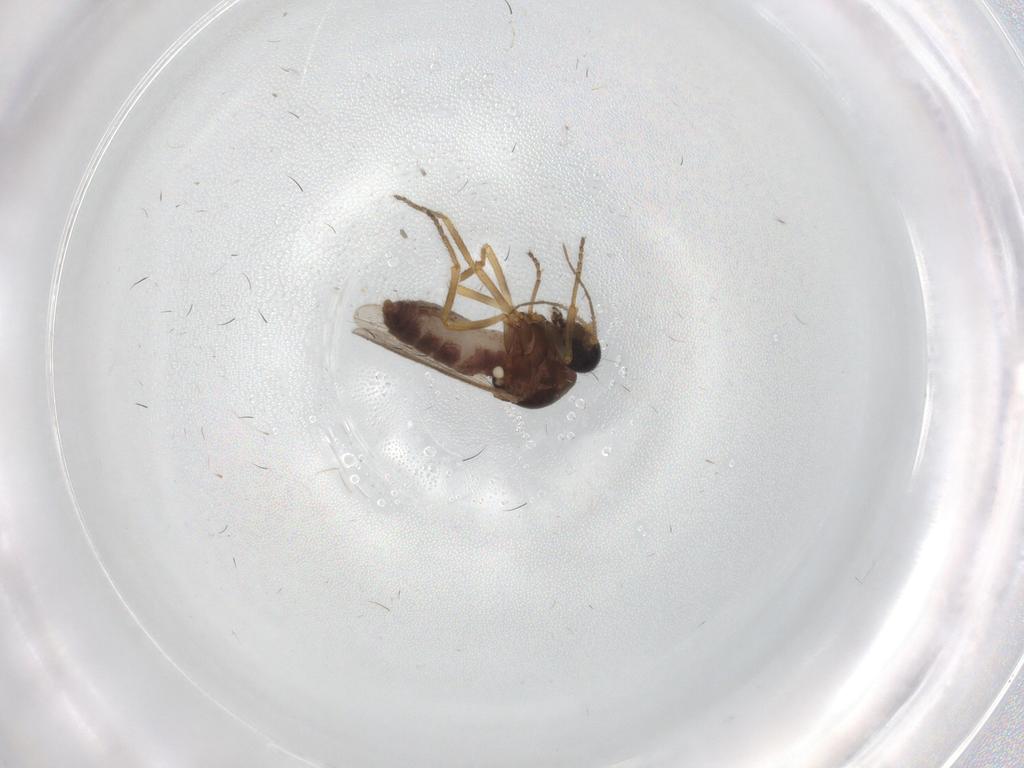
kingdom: Animalia
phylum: Arthropoda
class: Insecta
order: Diptera
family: Ceratopogonidae
